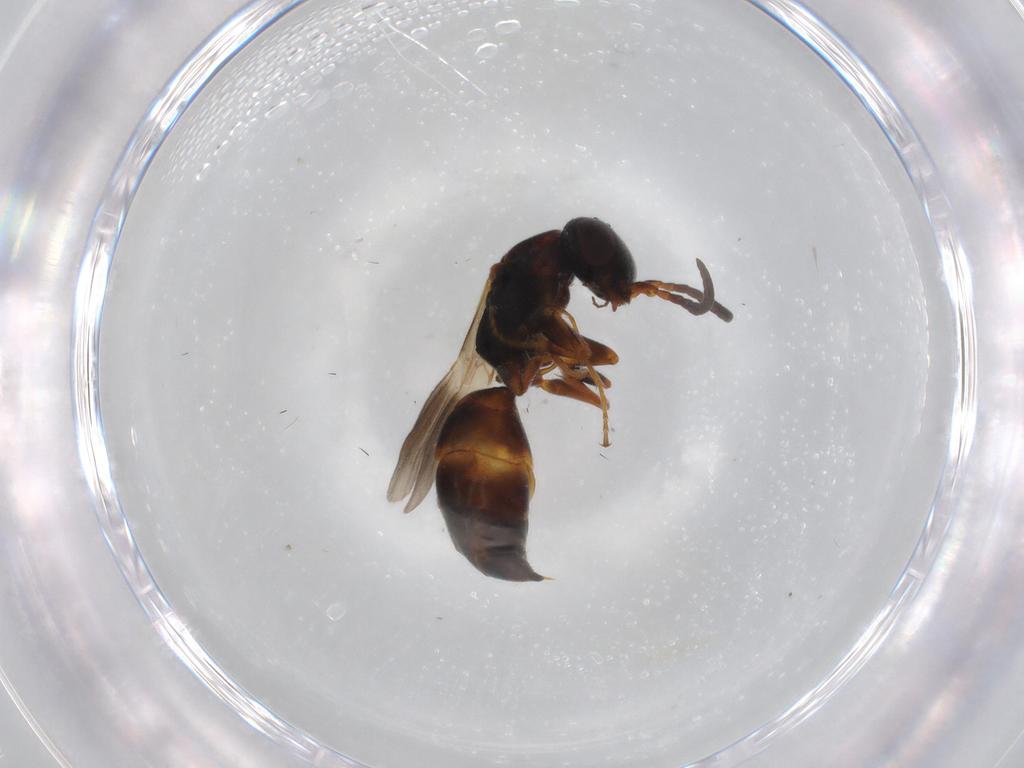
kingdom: Animalia
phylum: Arthropoda
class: Insecta
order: Hymenoptera
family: Bethylidae
